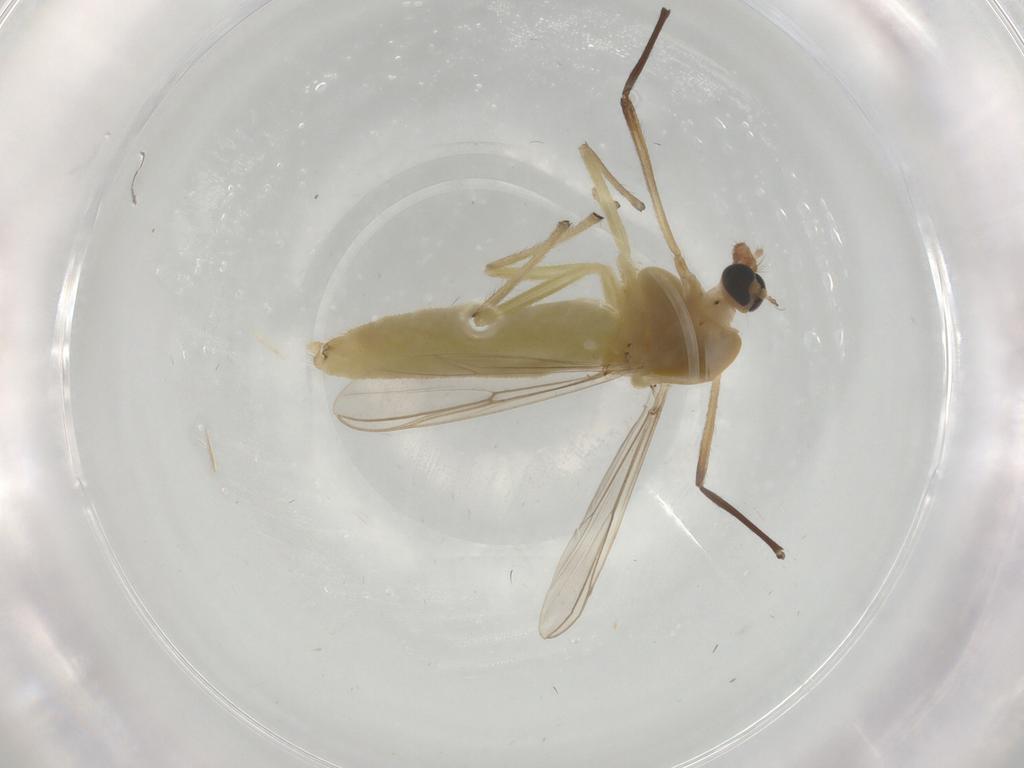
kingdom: Animalia
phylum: Arthropoda
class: Insecta
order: Diptera
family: Chironomidae
